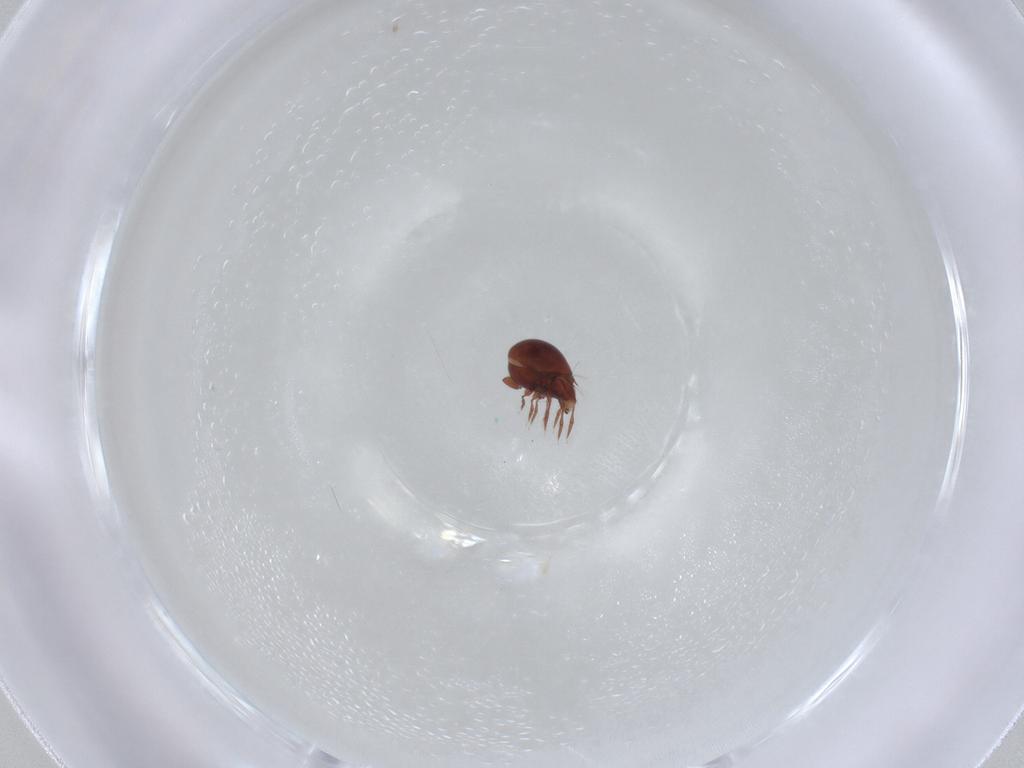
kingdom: Animalia
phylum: Arthropoda
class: Arachnida
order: Sarcoptiformes
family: Ceratozetidae
